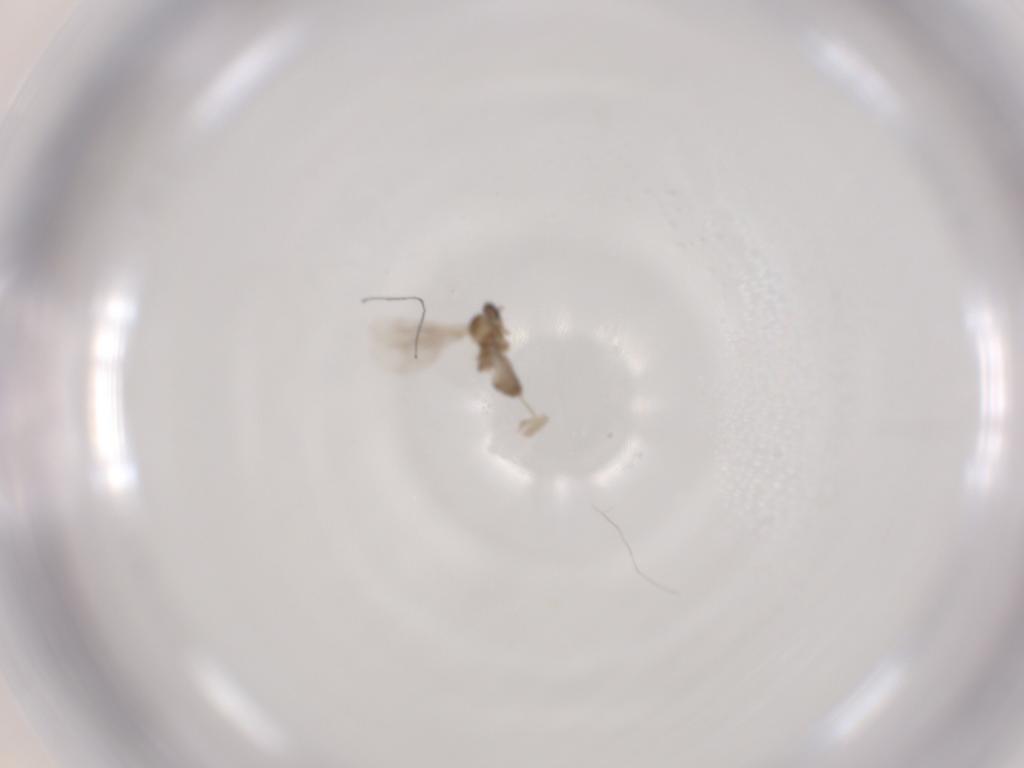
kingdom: Animalia
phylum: Arthropoda
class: Insecta
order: Diptera
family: Cecidomyiidae
